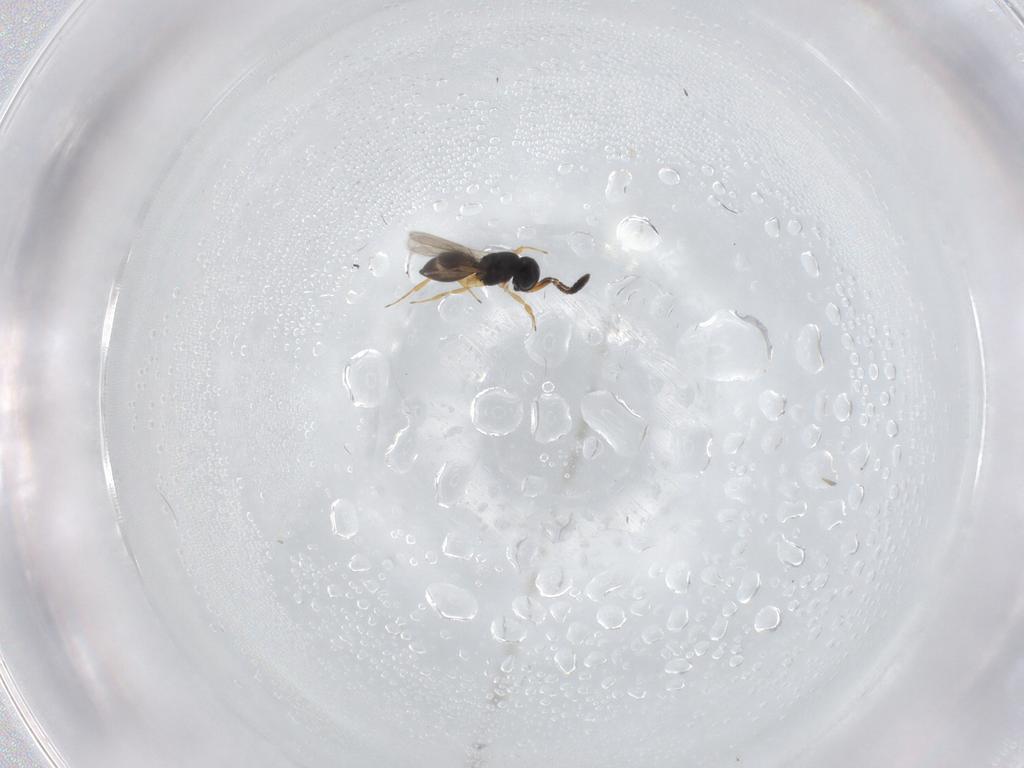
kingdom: Animalia
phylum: Arthropoda
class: Insecta
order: Hymenoptera
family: Scelionidae
